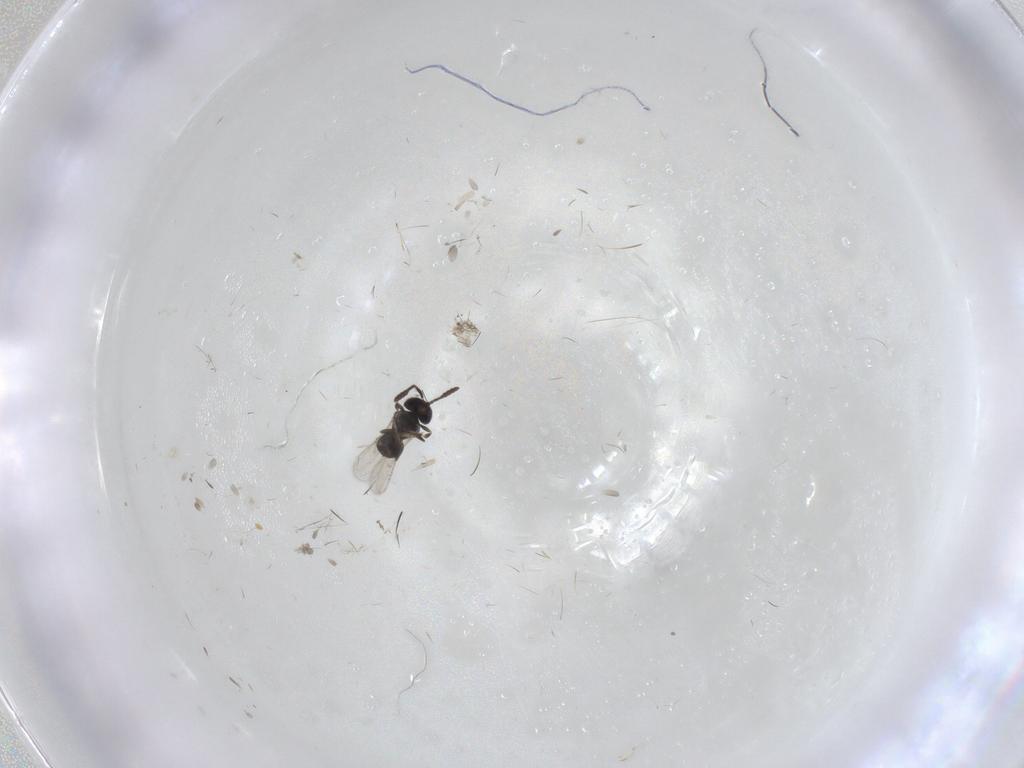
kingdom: Animalia
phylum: Arthropoda
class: Insecta
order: Hymenoptera
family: Scelionidae
